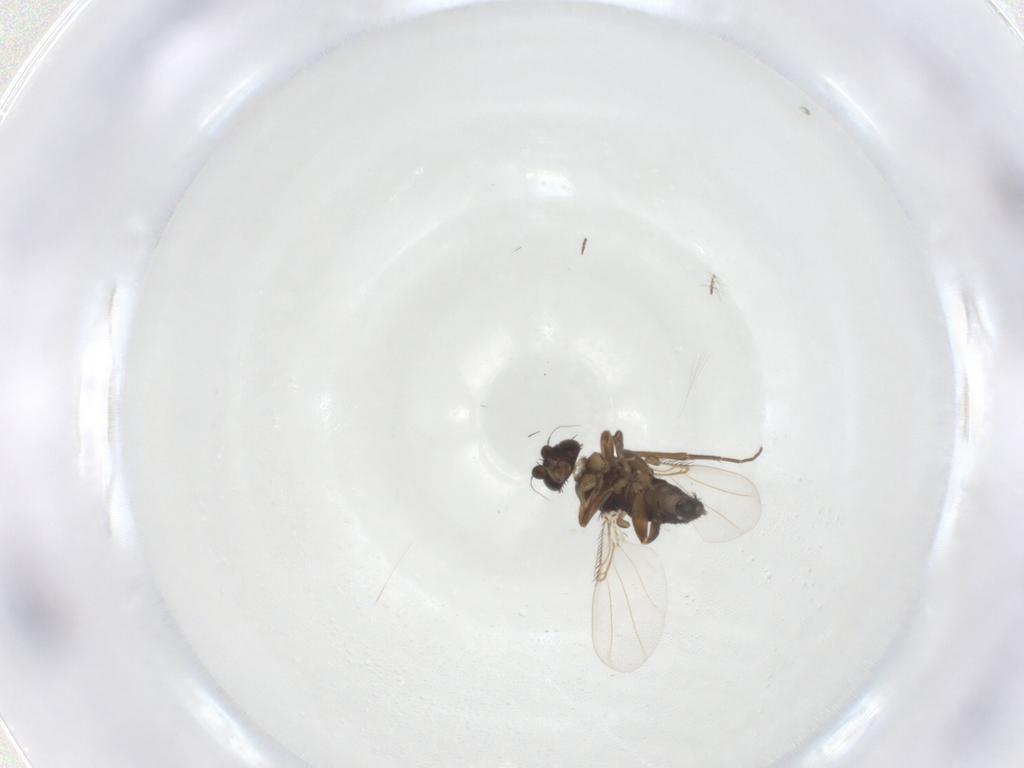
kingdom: Animalia
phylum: Arthropoda
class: Insecta
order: Diptera
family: Phoridae
